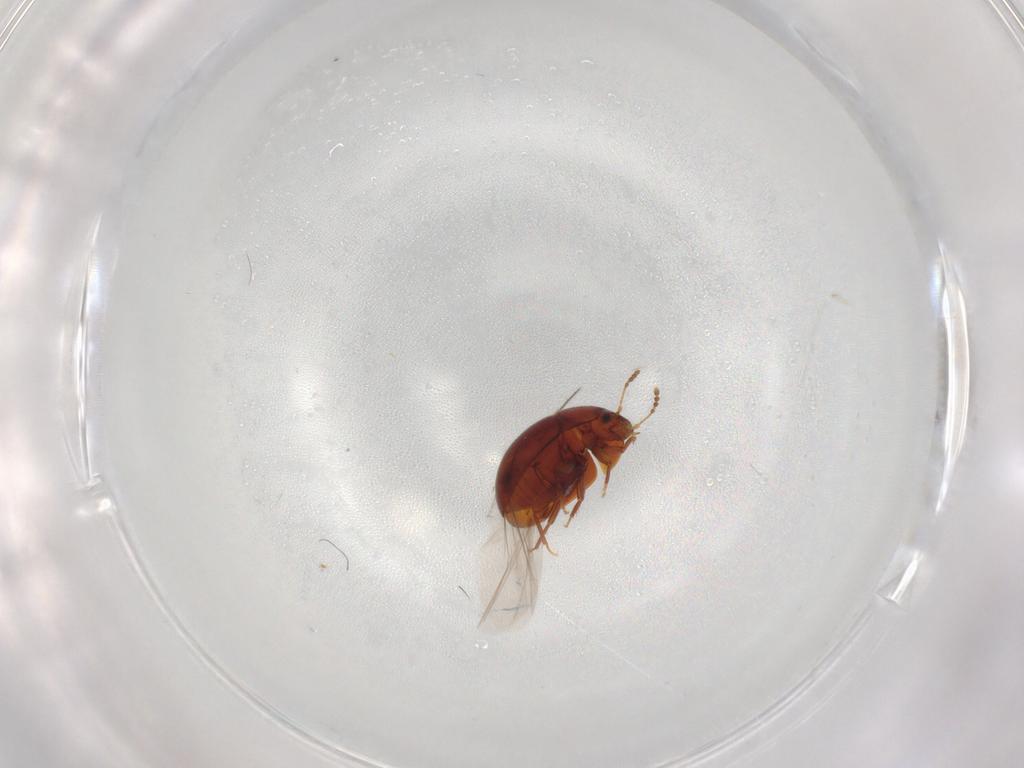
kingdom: Animalia
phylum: Arthropoda
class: Insecta
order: Coleoptera
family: Leiodidae
